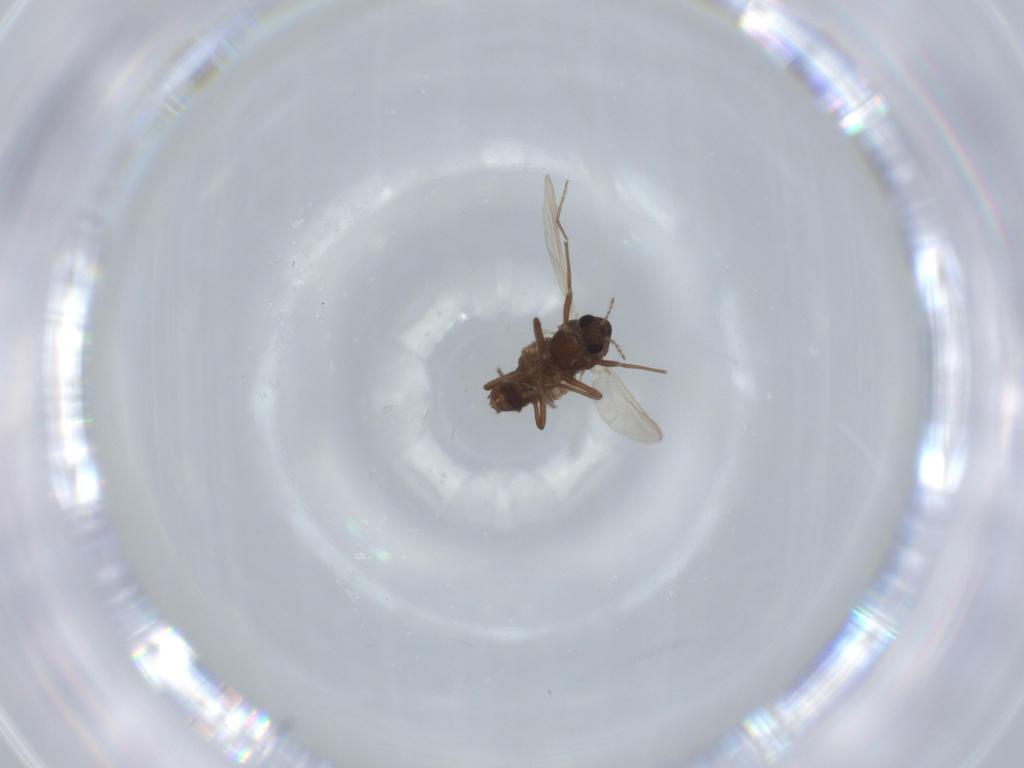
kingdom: Animalia
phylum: Arthropoda
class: Insecta
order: Diptera
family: Chironomidae
